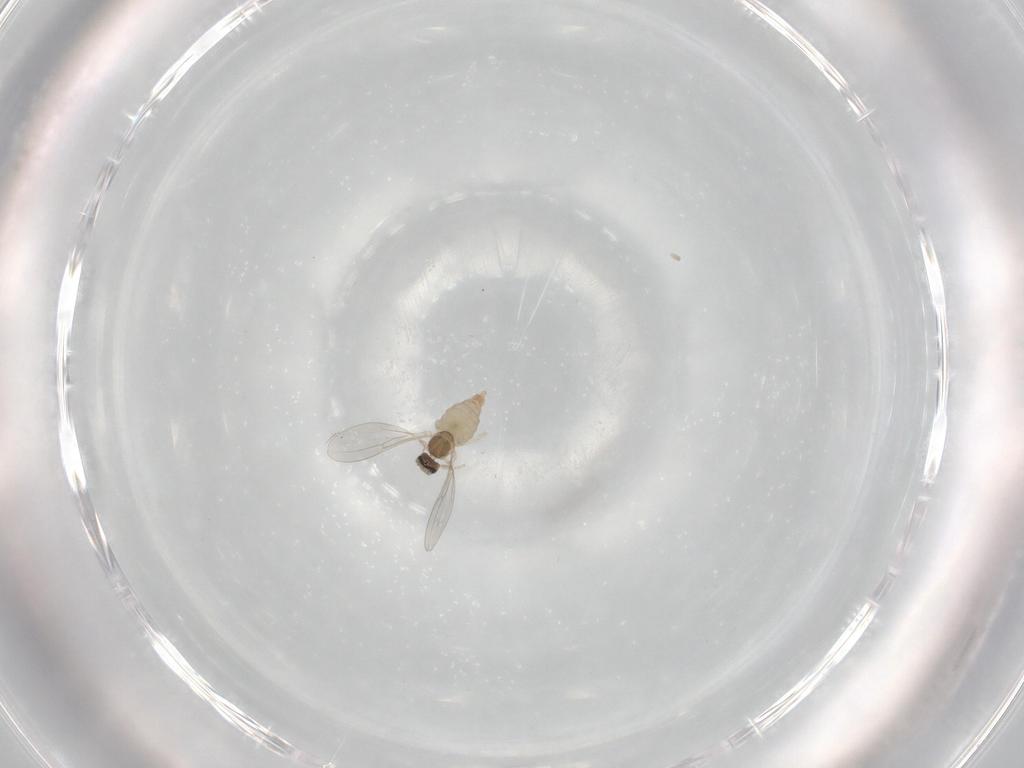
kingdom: Animalia
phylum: Arthropoda
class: Insecta
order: Diptera
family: Cecidomyiidae
